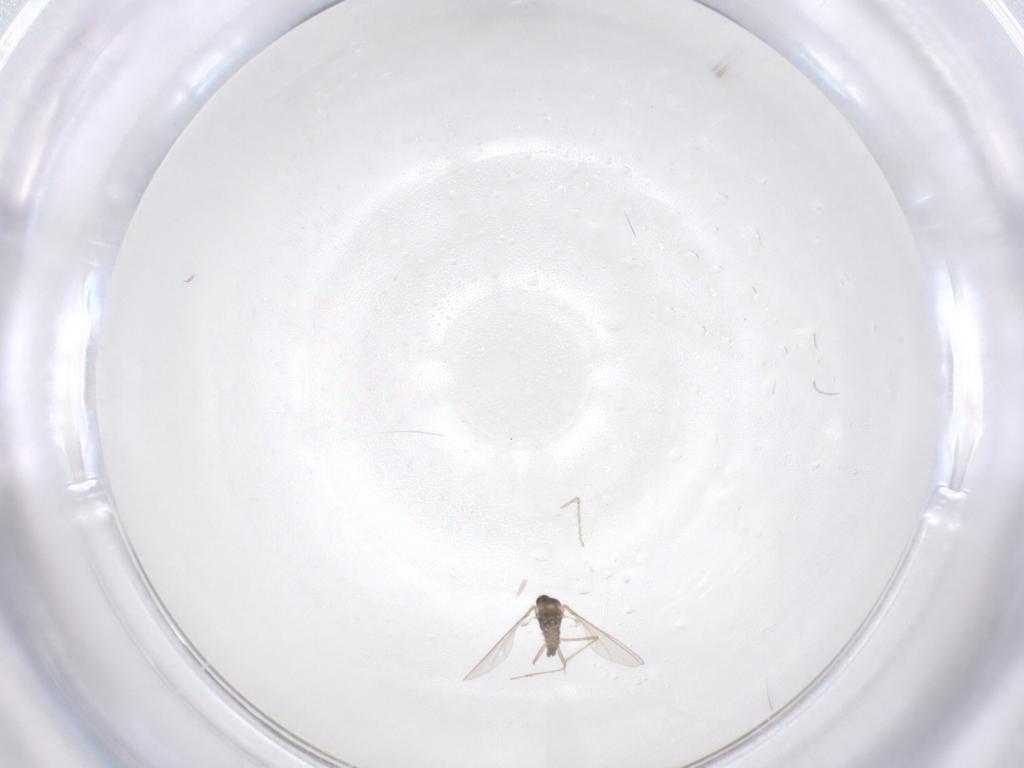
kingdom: Animalia
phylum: Arthropoda
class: Insecta
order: Diptera
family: Cecidomyiidae
